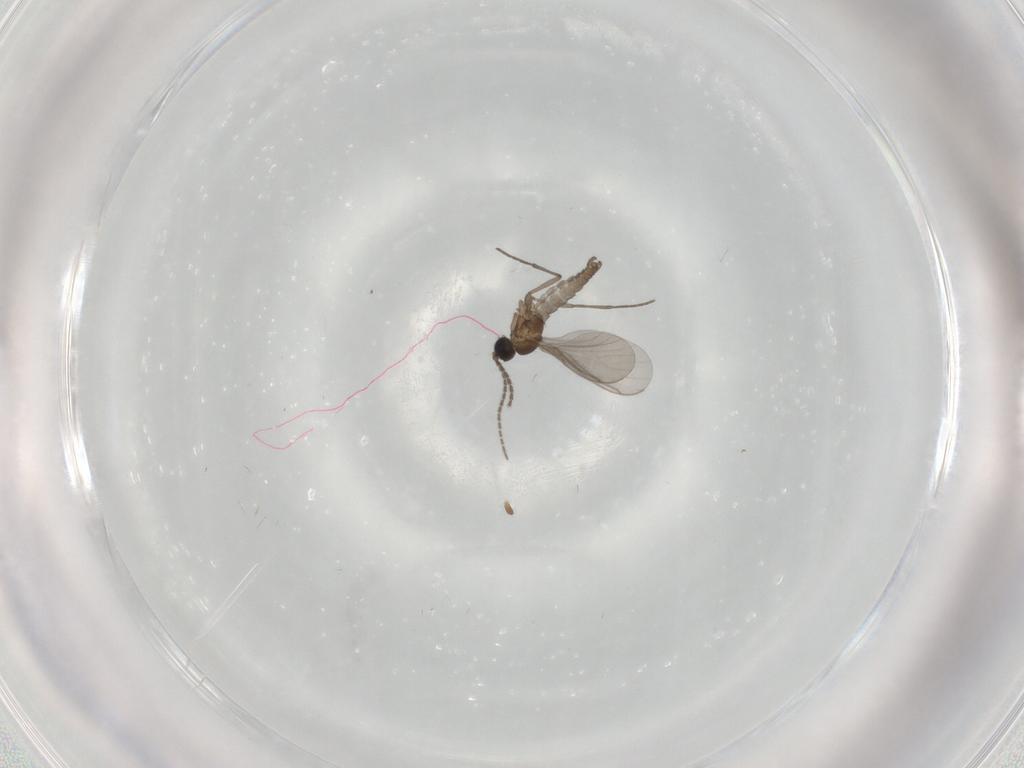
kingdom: Animalia
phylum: Arthropoda
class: Insecta
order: Diptera
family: Sciaridae
